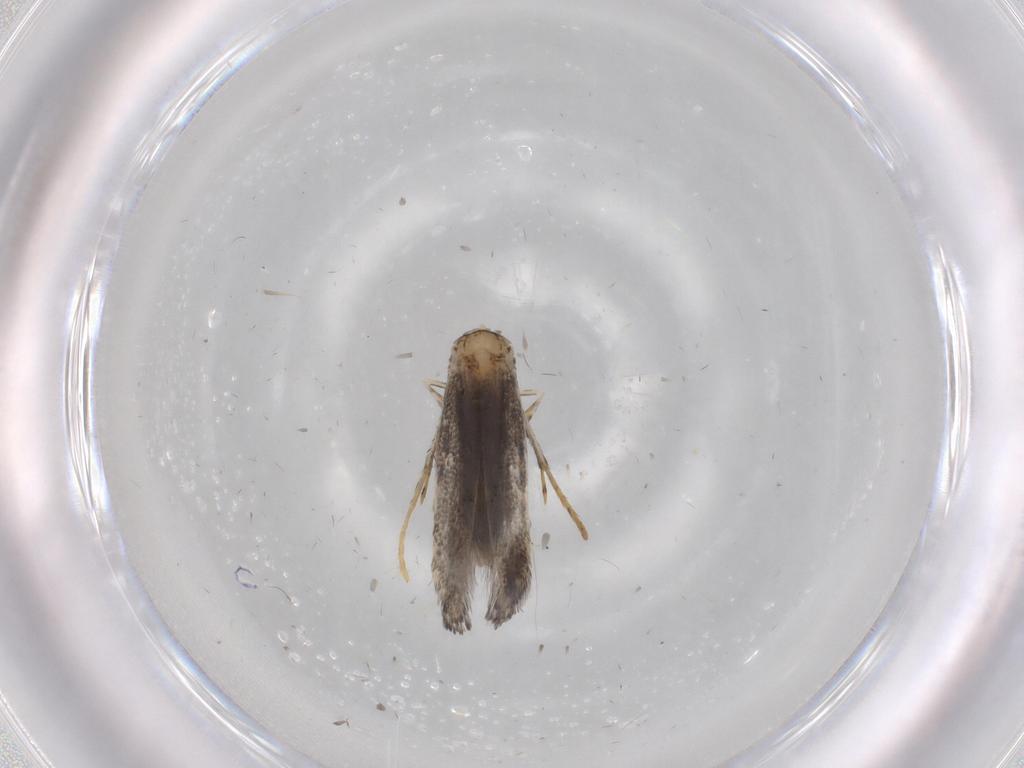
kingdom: Animalia
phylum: Arthropoda
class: Insecta
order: Lepidoptera
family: Gracillariidae
